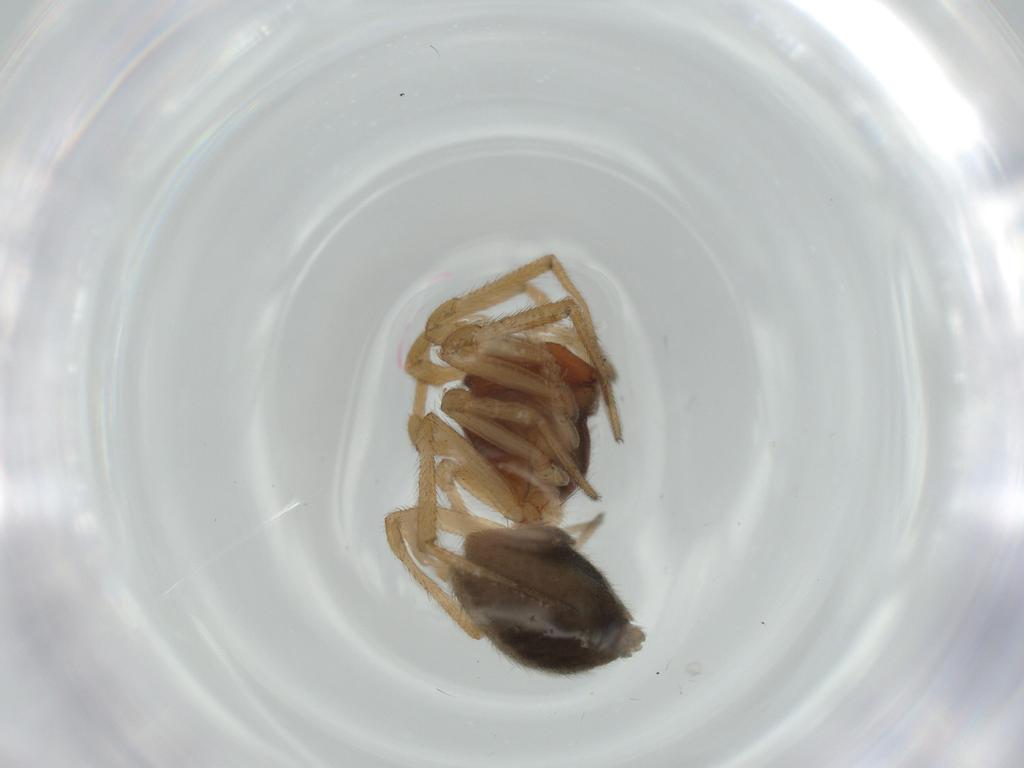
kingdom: Animalia
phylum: Arthropoda
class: Arachnida
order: Araneae
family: Linyphiidae
